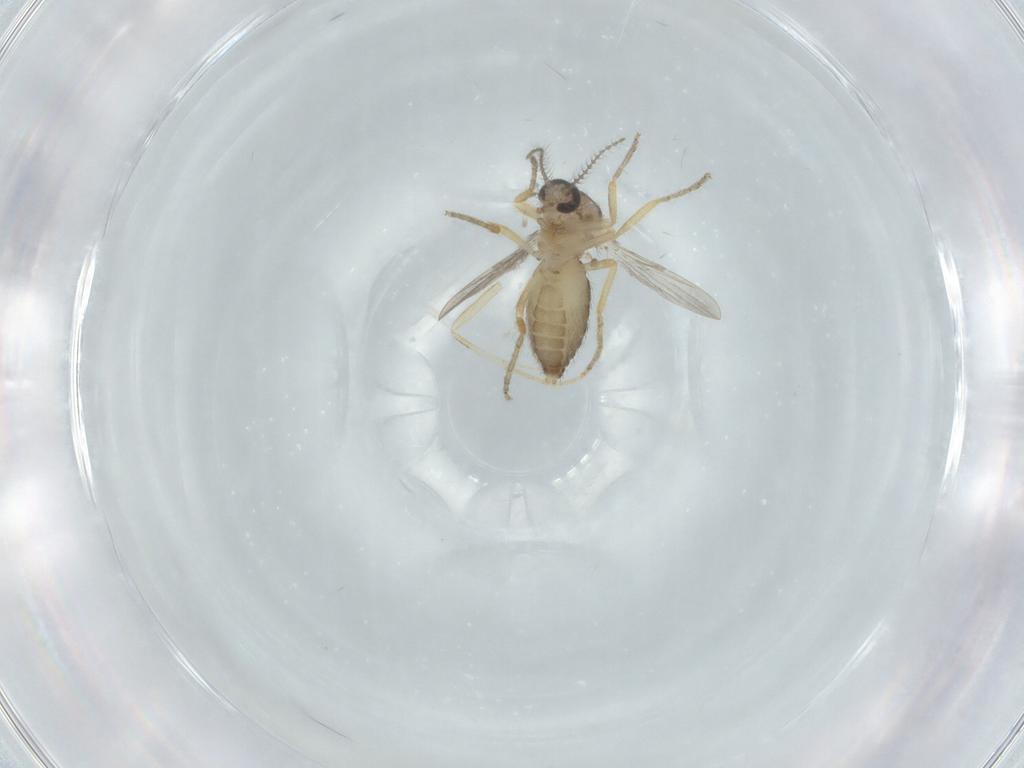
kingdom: Animalia
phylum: Arthropoda
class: Insecta
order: Diptera
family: Ceratopogonidae
